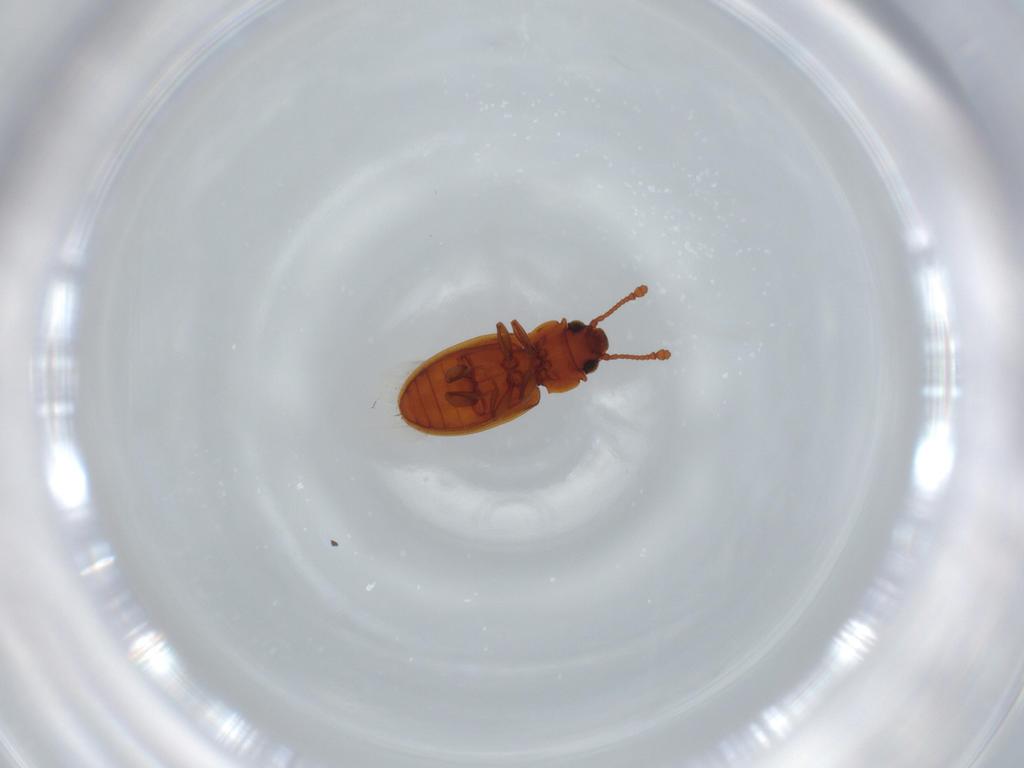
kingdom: Animalia
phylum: Arthropoda
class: Insecta
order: Coleoptera
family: Silvanidae
